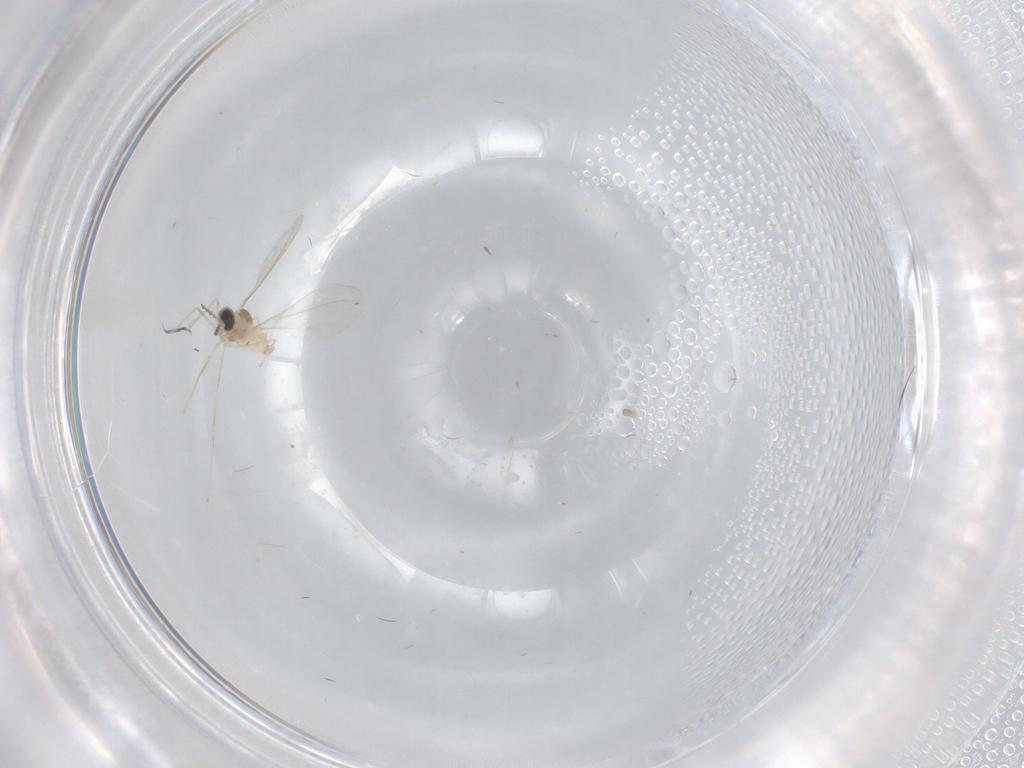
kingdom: Animalia
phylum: Arthropoda
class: Insecta
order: Diptera
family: Cecidomyiidae
